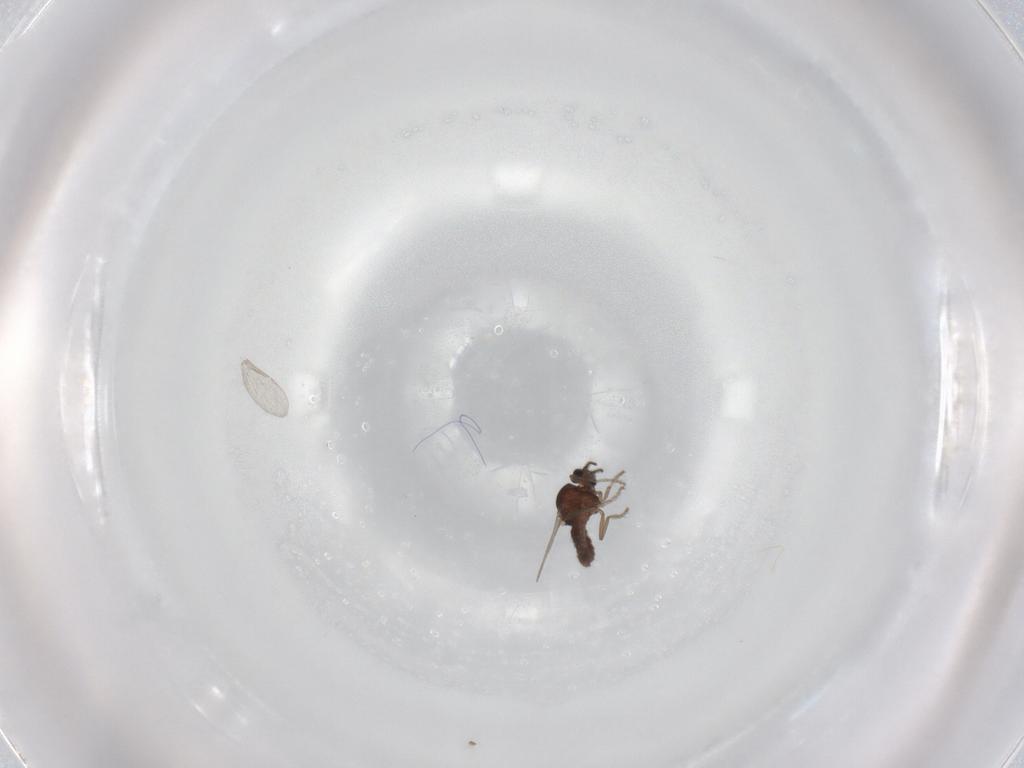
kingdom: Animalia
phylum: Arthropoda
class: Insecta
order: Diptera
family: Ceratopogonidae
